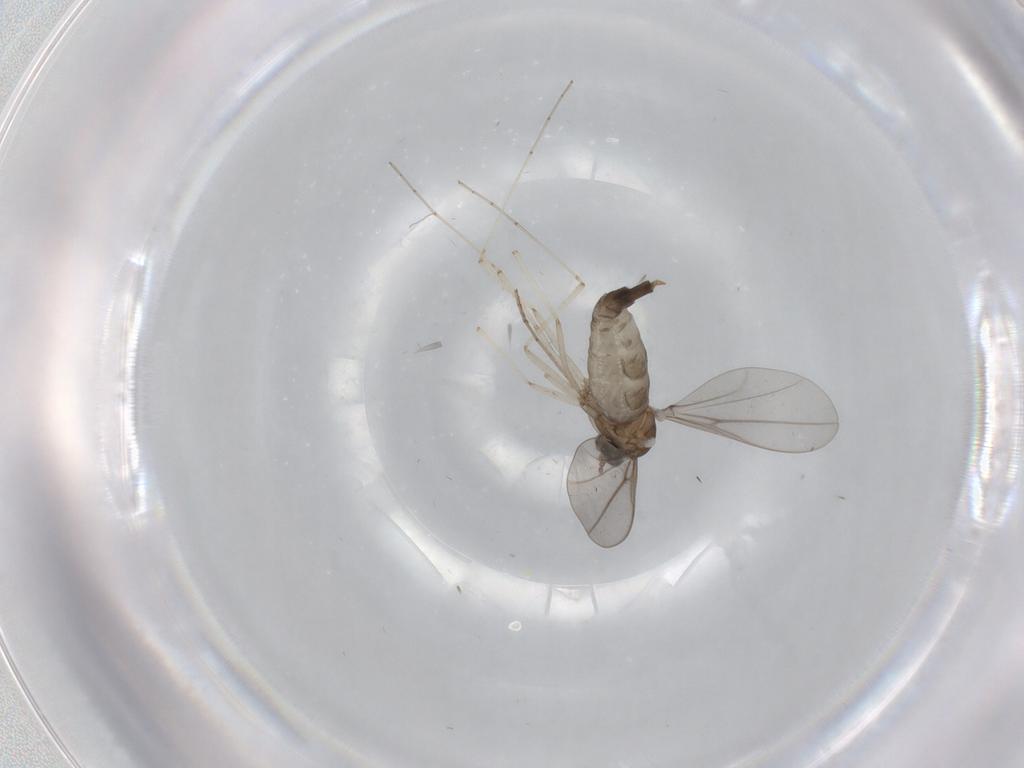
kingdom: Animalia
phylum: Arthropoda
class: Insecta
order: Diptera
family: Cecidomyiidae
